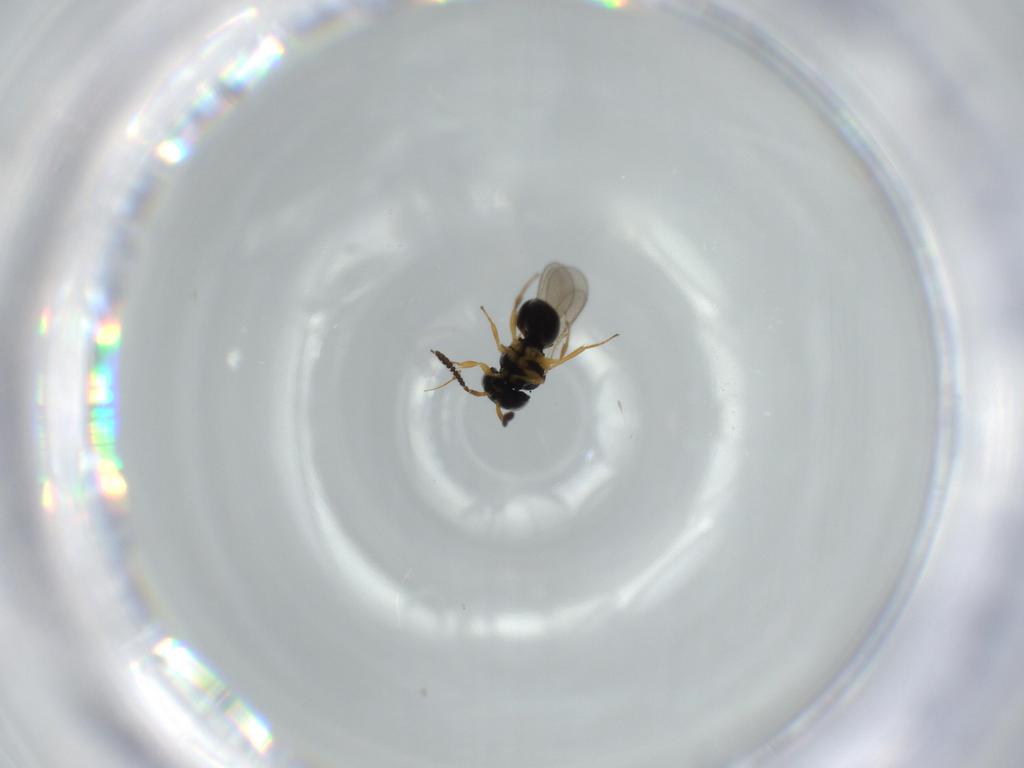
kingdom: Animalia
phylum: Arthropoda
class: Insecta
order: Hymenoptera
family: Scelionidae
